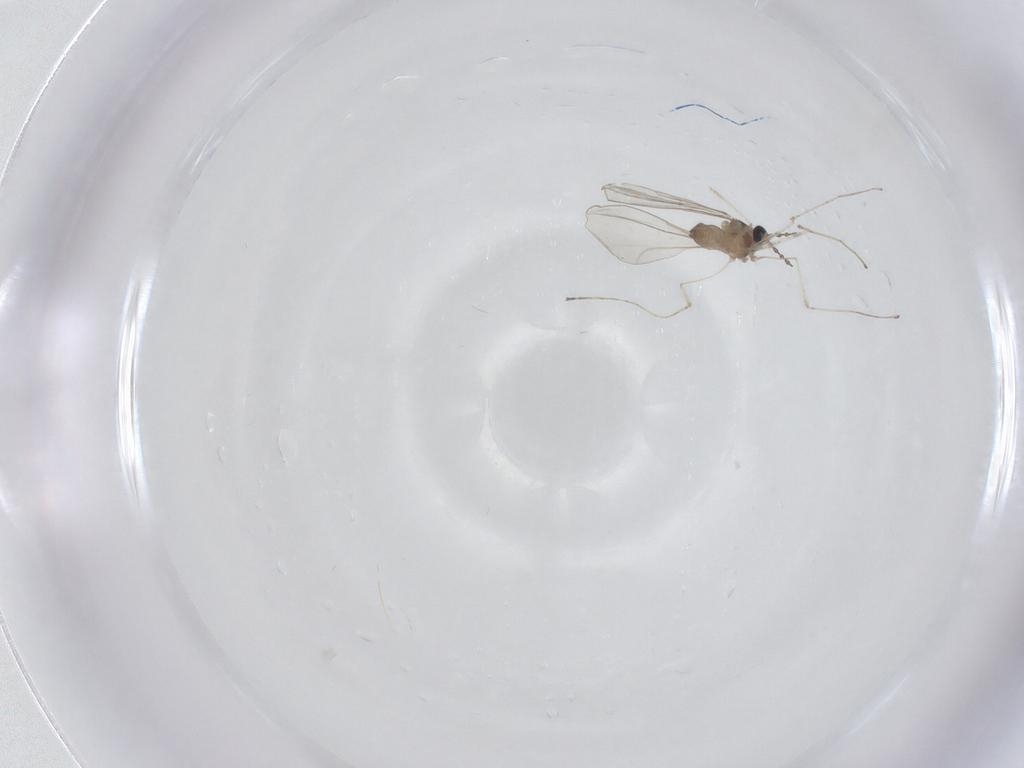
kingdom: Animalia
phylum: Arthropoda
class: Insecta
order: Diptera
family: Cecidomyiidae
